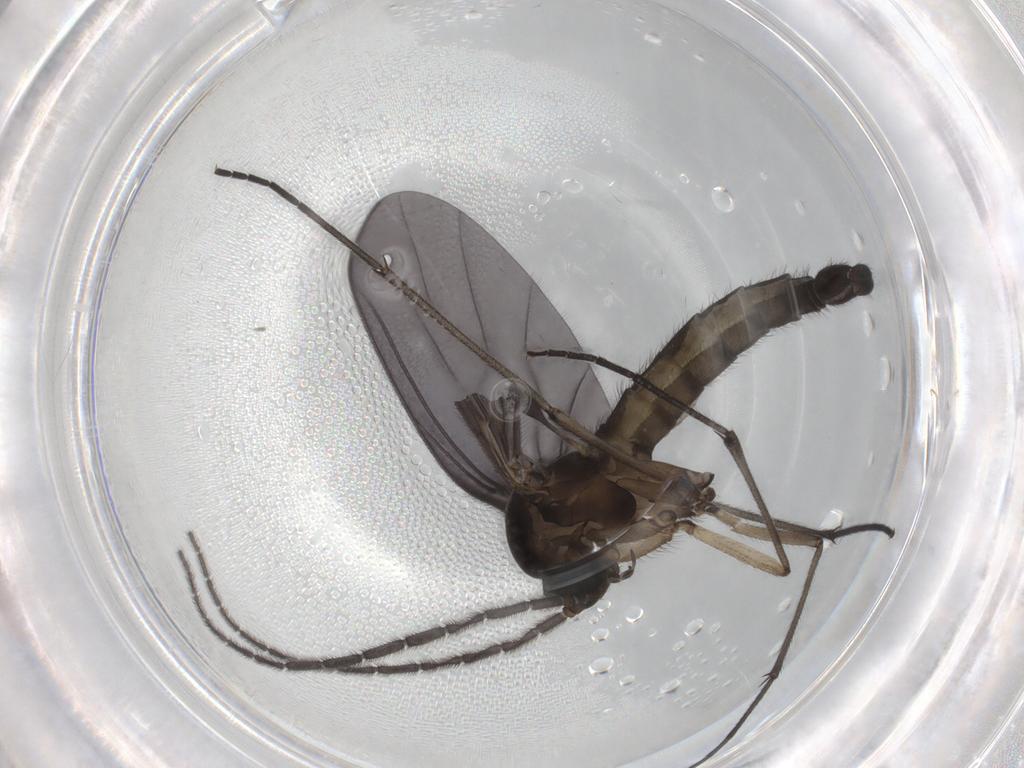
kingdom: Animalia
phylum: Arthropoda
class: Insecta
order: Diptera
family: Sciaridae
